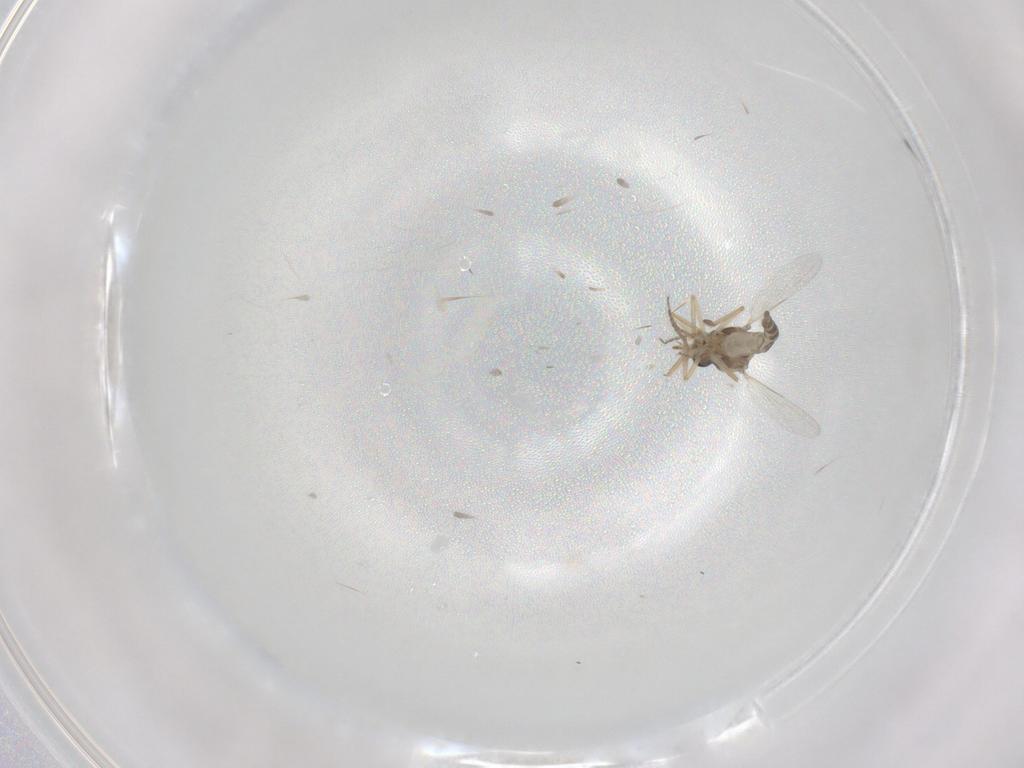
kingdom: Animalia
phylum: Arthropoda
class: Insecta
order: Diptera
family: Ceratopogonidae
